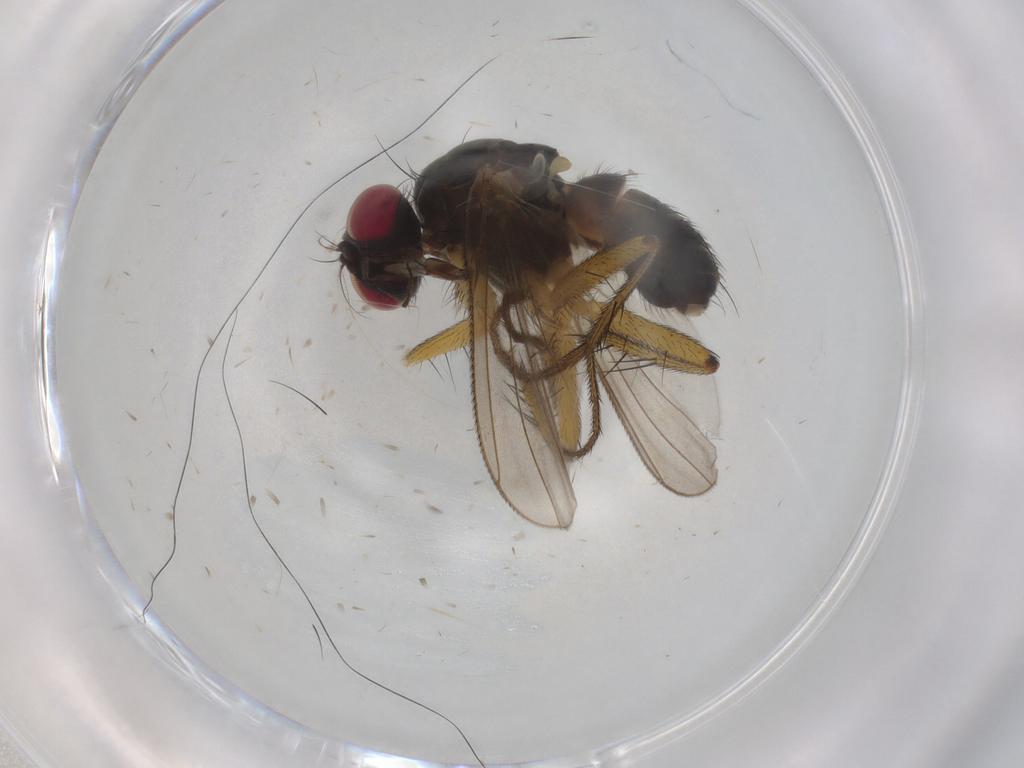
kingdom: Animalia
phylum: Arthropoda
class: Insecta
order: Diptera
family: Muscidae
